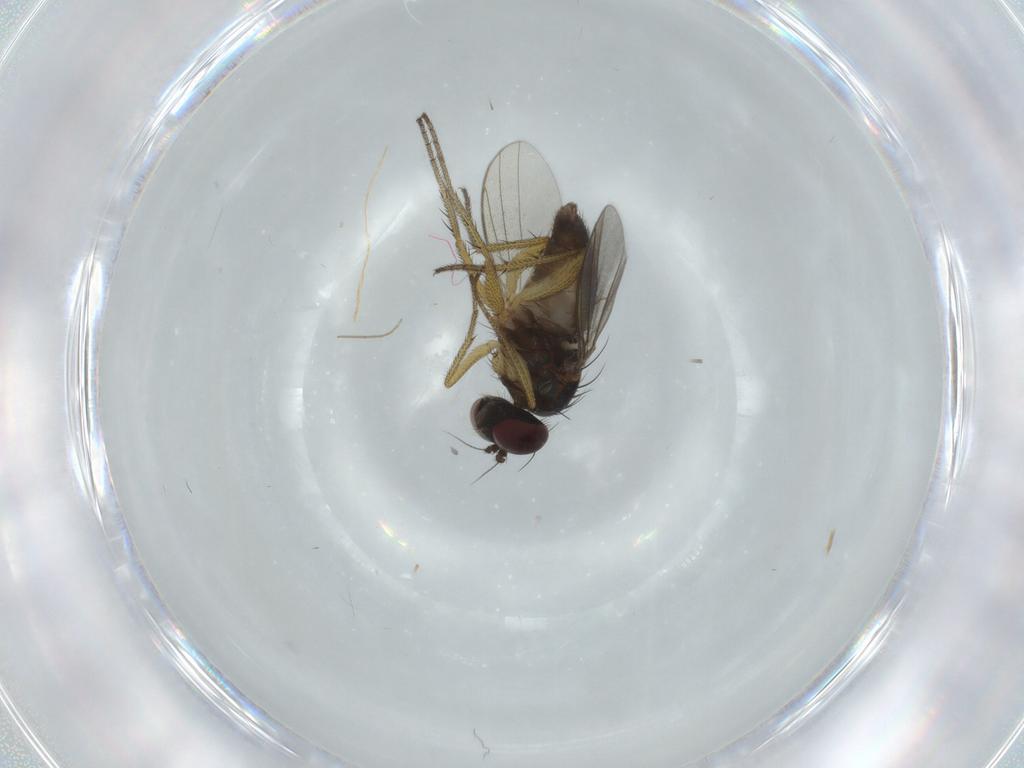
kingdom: Animalia
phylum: Arthropoda
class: Insecta
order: Diptera
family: Dolichopodidae
